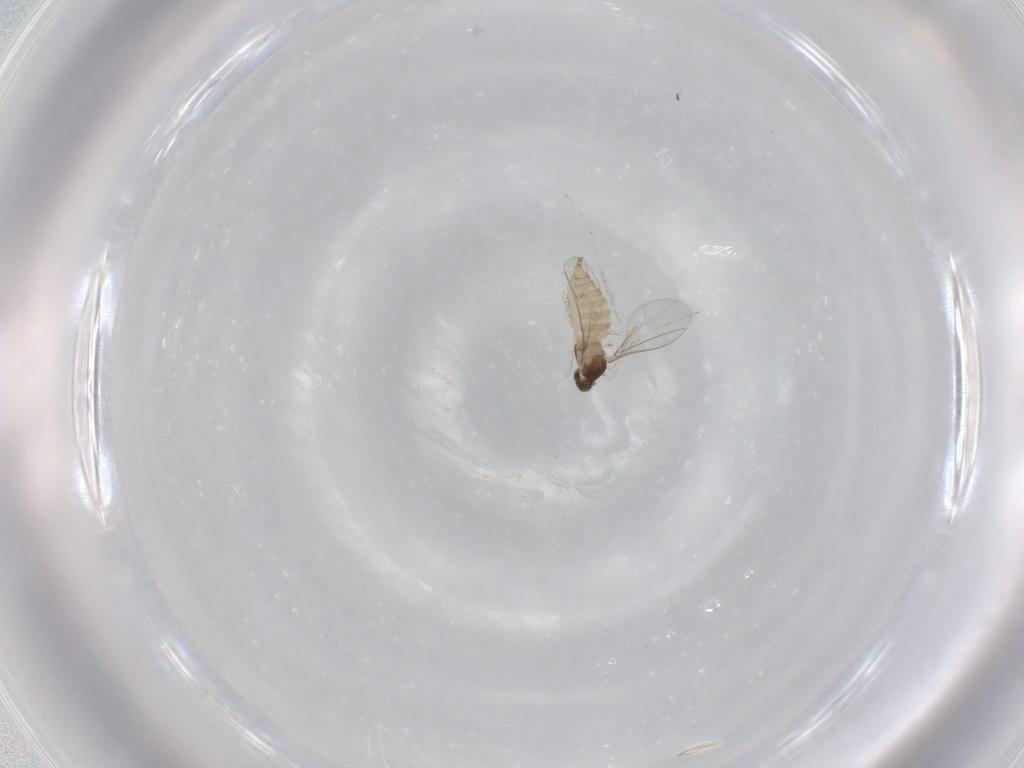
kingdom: Animalia
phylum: Arthropoda
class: Insecta
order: Diptera
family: Cecidomyiidae
